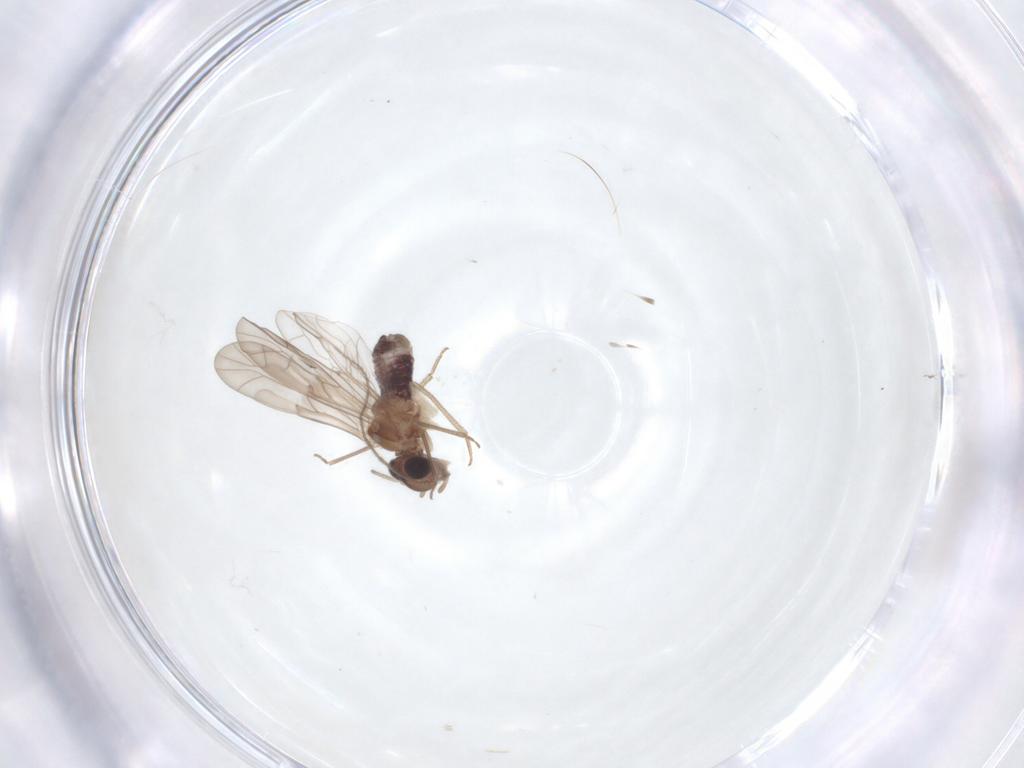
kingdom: Animalia
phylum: Arthropoda
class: Insecta
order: Psocodea
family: Peripsocidae
